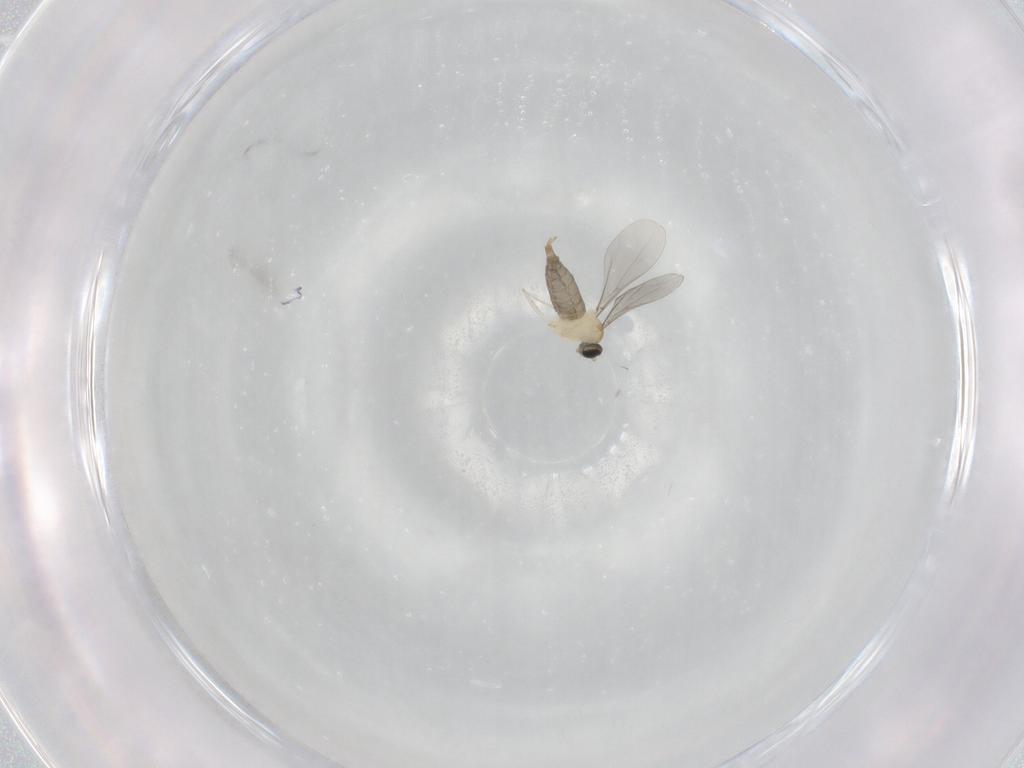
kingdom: Animalia
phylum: Arthropoda
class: Insecta
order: Diptera
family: Cecidomyiidae
